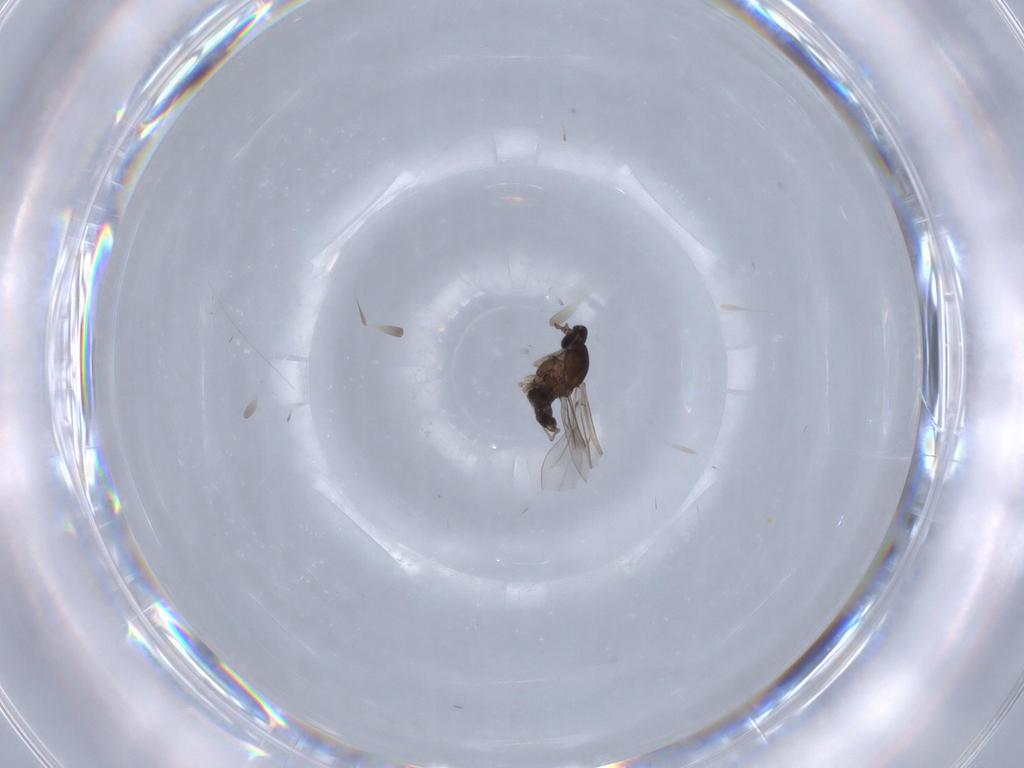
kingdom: Animalia
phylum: Arthropoda
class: Insecta
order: Diptera
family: Cecidomyiidae
